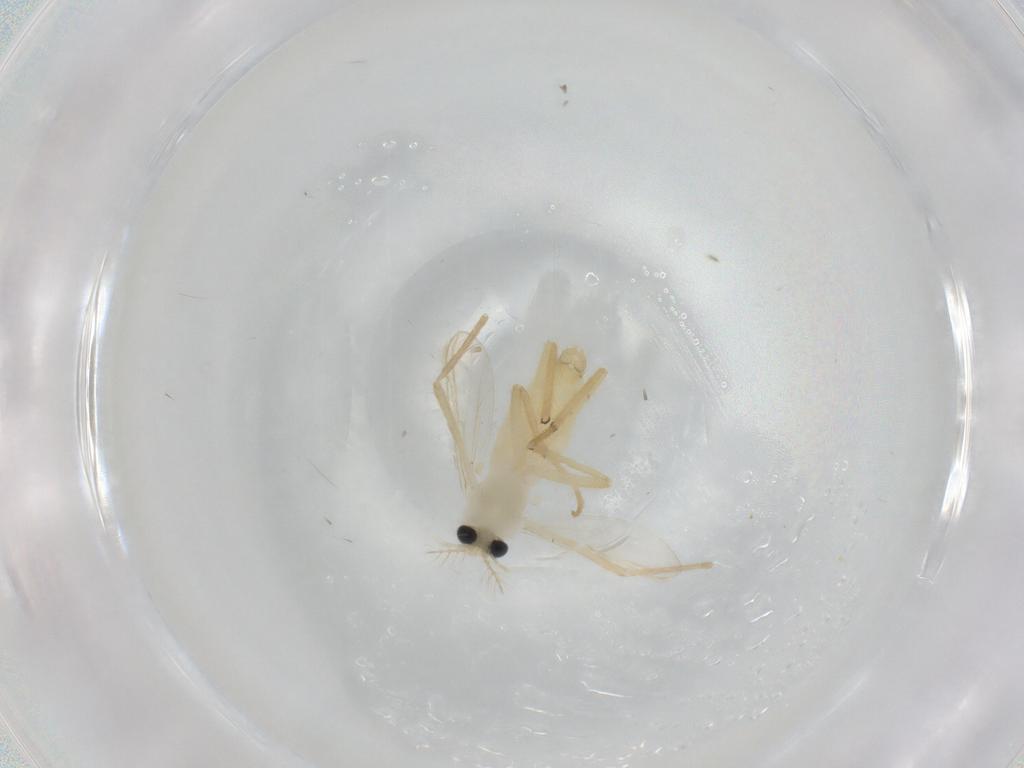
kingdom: Animalia
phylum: Arthropoda
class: Insecta
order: Diptera
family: Chironomidae
